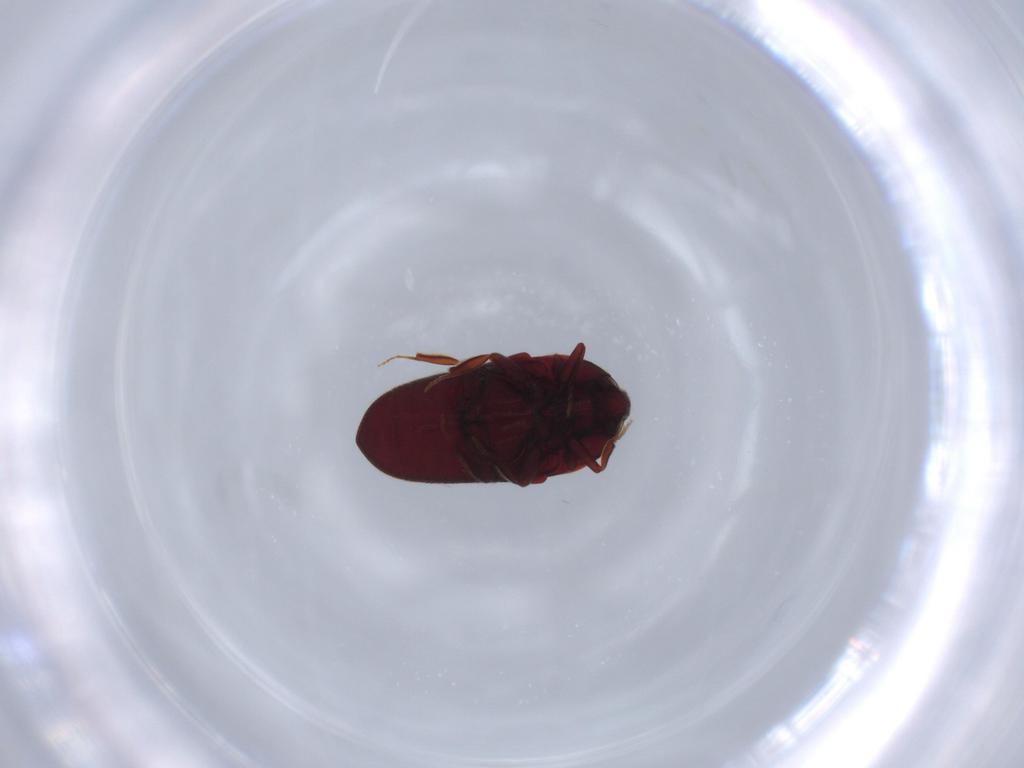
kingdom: Animalia
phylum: Arthropoda
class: Insecta
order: Coleoptera
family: Throscidae
